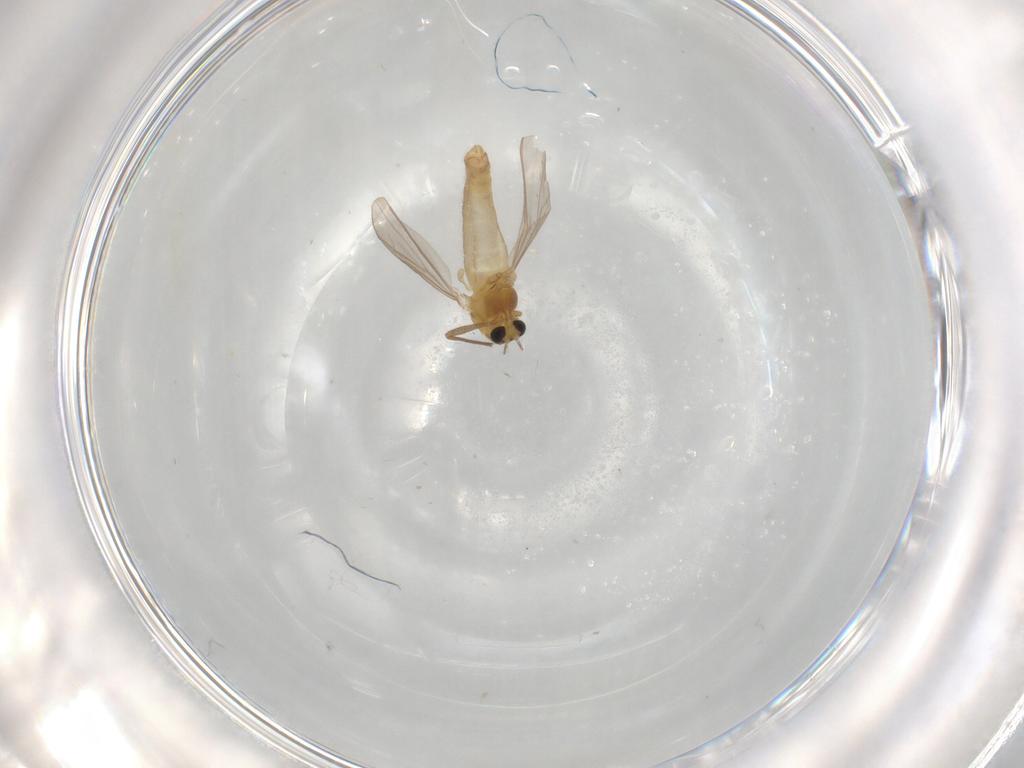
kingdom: Animalia
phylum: Arthropoda
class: Insecta
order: Diptera
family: Chironomidae
